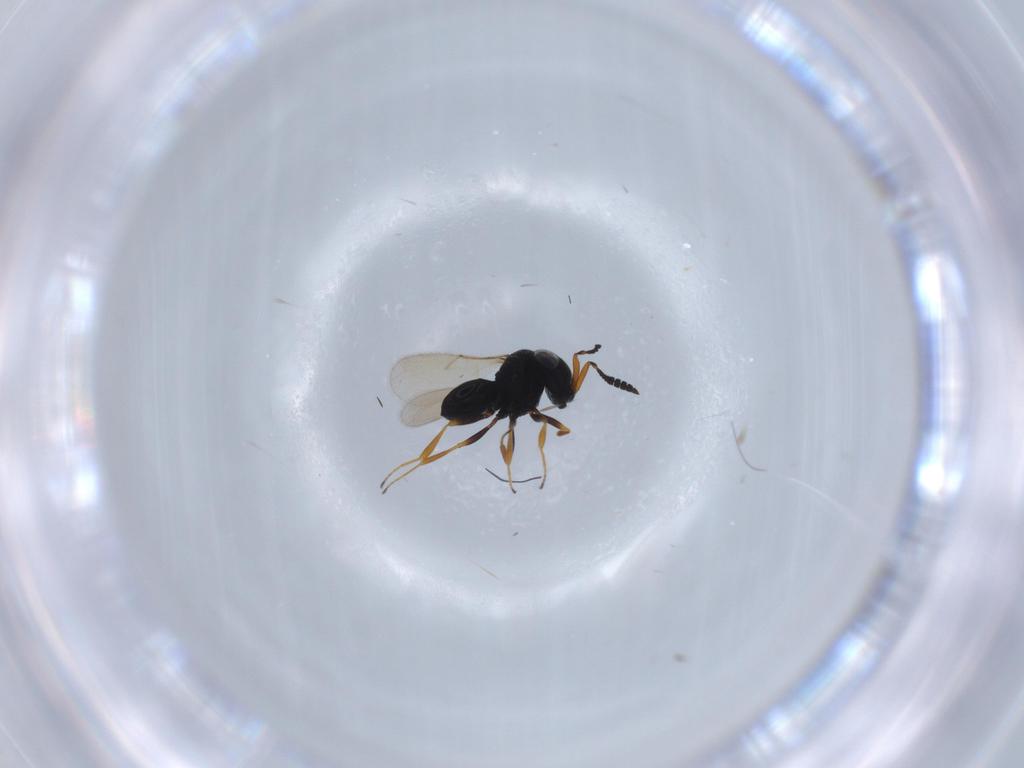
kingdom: Animalia
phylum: Arthropoda
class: Insecta
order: Hymenoptera
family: Scelionidae
